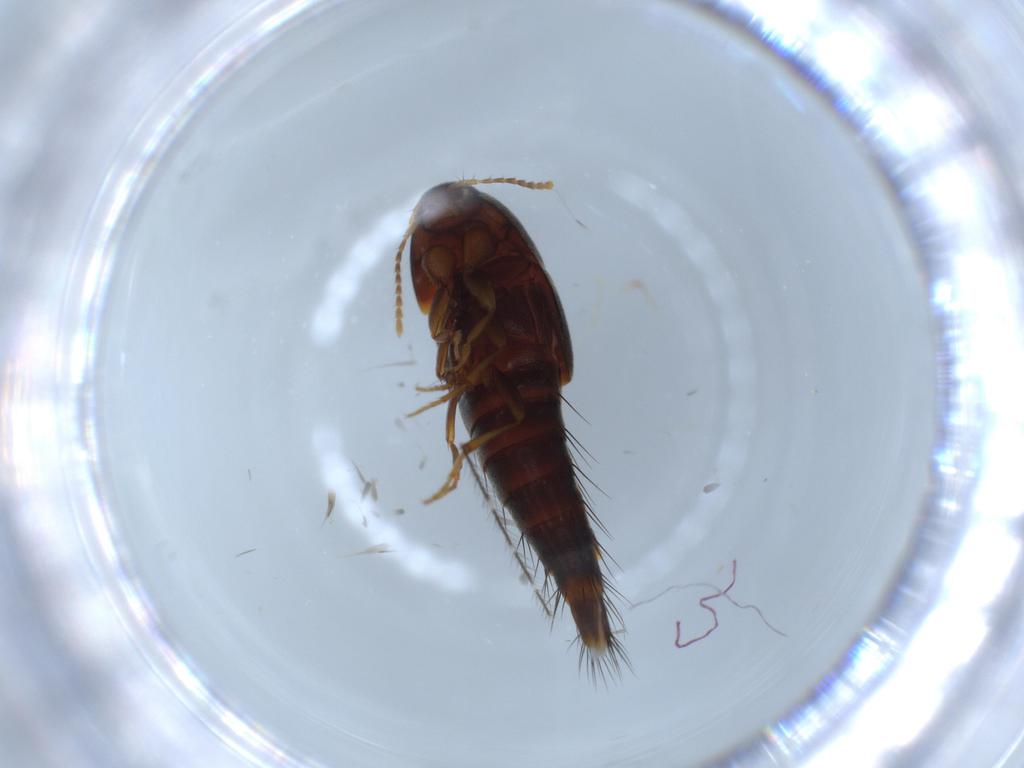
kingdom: Animalia
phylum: Arthropoda
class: Insecta
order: Coleoptera
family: Staphylinidae
